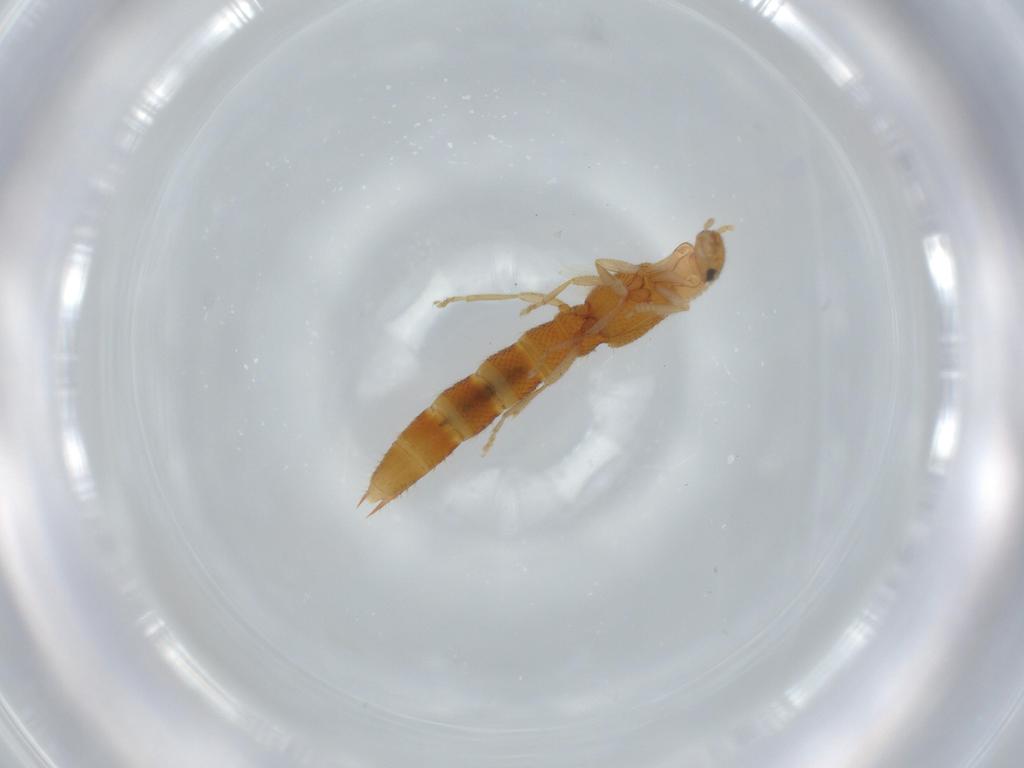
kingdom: Animalia
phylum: Arthropoda
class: Insecta
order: Coleoptera
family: Staphylinidae
